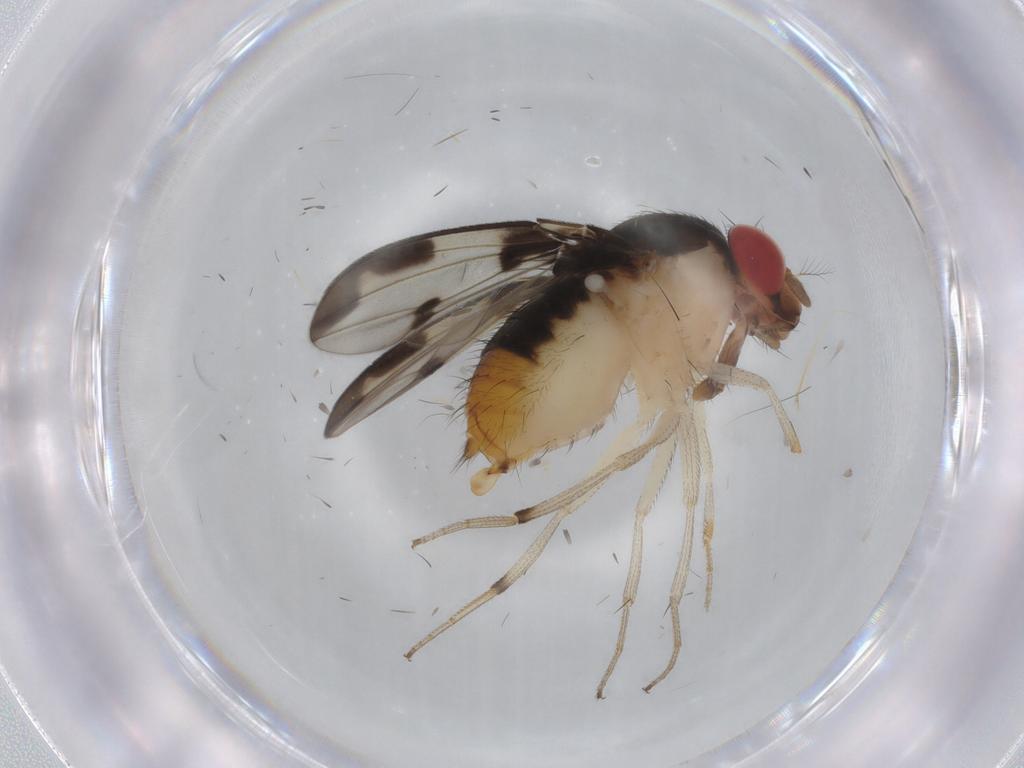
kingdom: Animalia
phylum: Arthropoda
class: Insecta
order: Diptera
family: Drosophilidae
